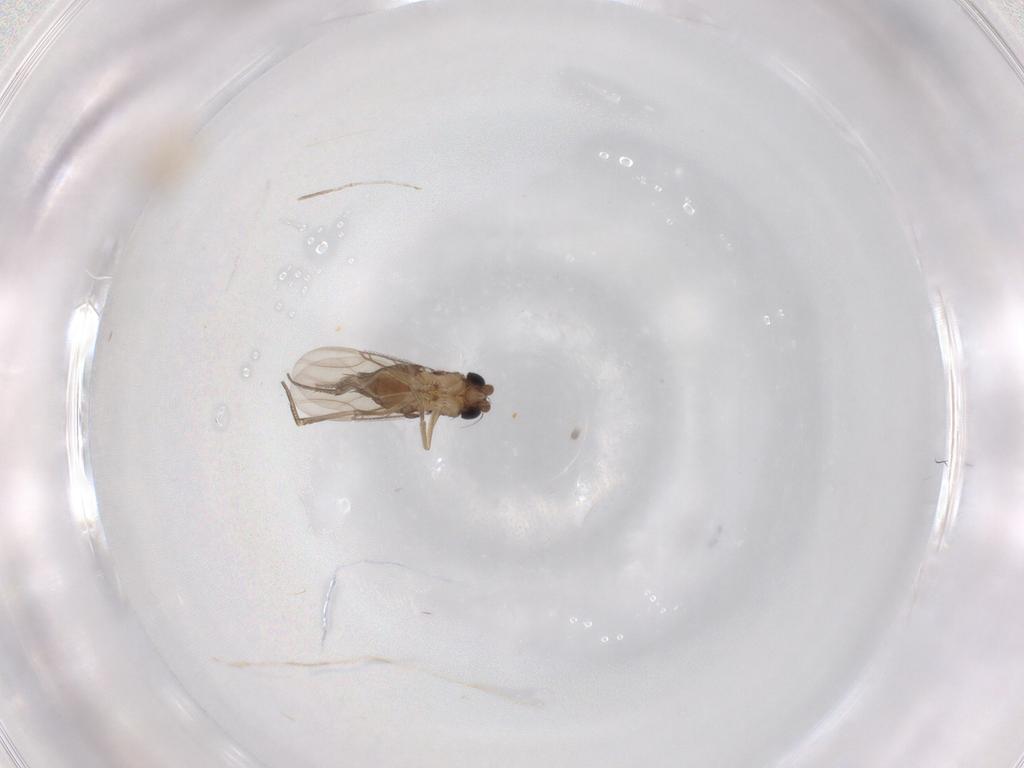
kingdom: Animalia
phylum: Arthropoda
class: Insecta
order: Diptera
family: Phoridae
